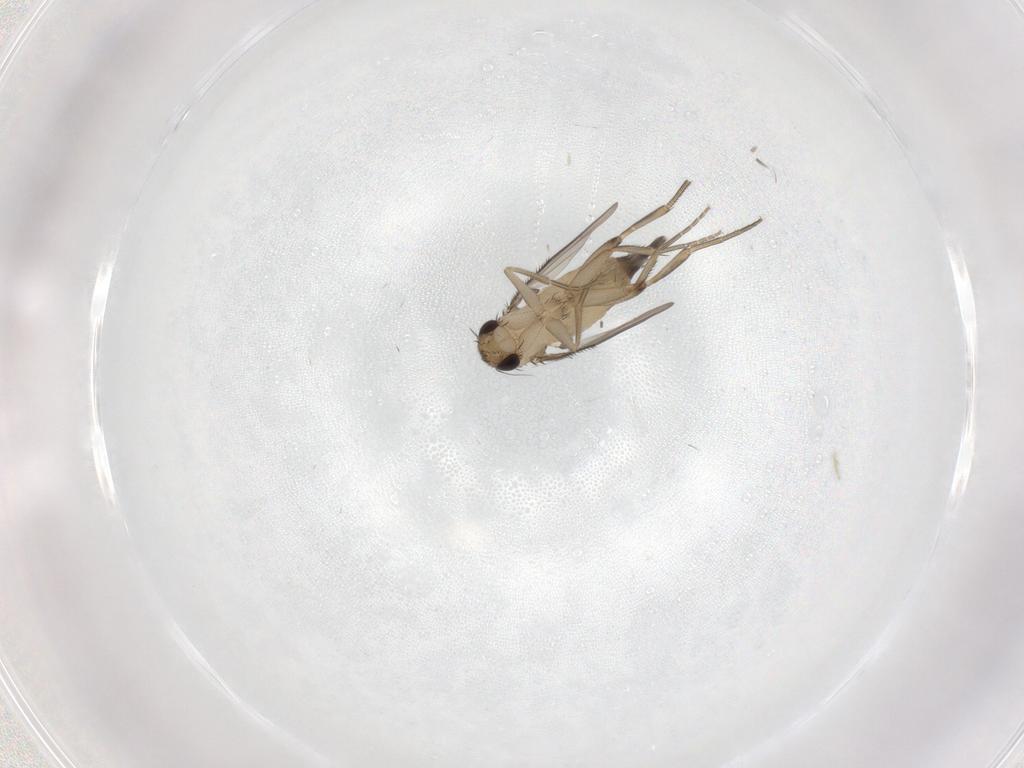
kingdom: Animalia
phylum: Arthropoda
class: Insecta
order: Diptera
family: Phoridae
